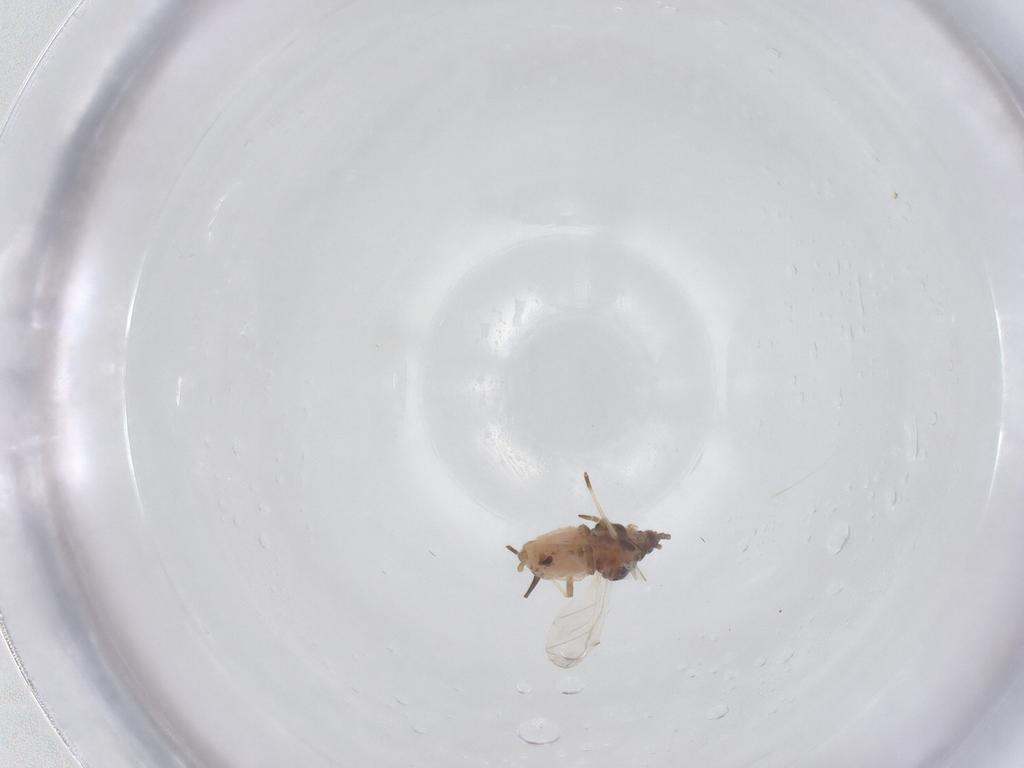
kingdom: Animalia
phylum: Arthropoda
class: Insecta
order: Hemiptera
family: Aphididae
